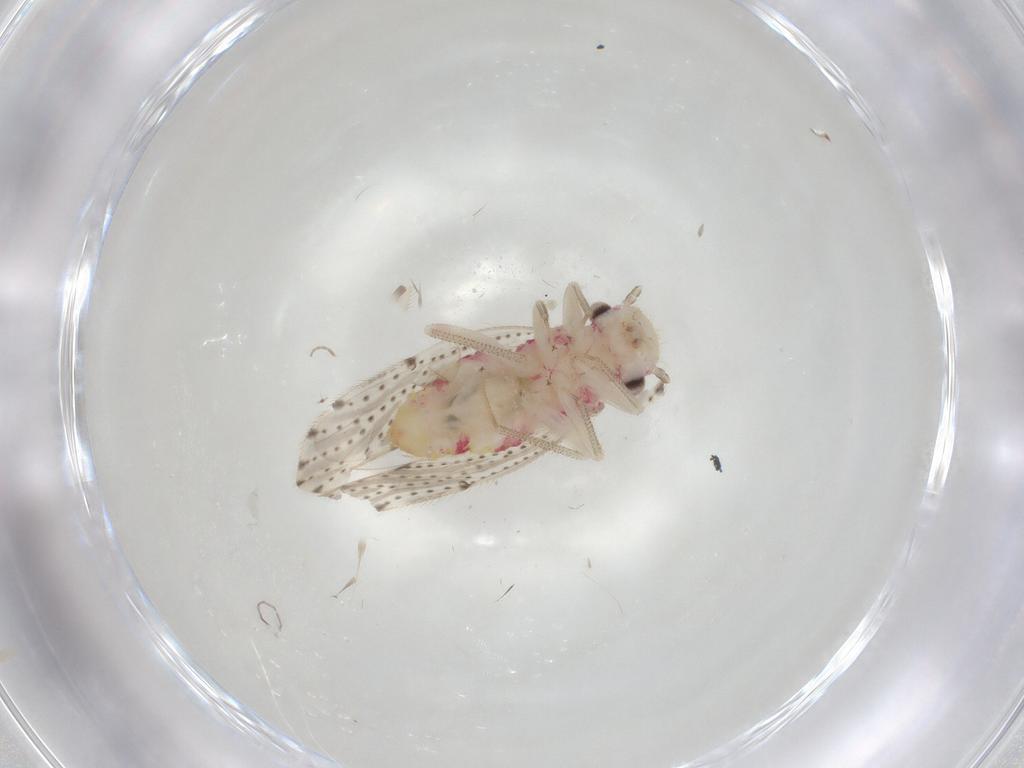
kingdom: Animalia
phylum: Arthropoda
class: Insecta
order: Psocodea
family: Hemipsocidae
